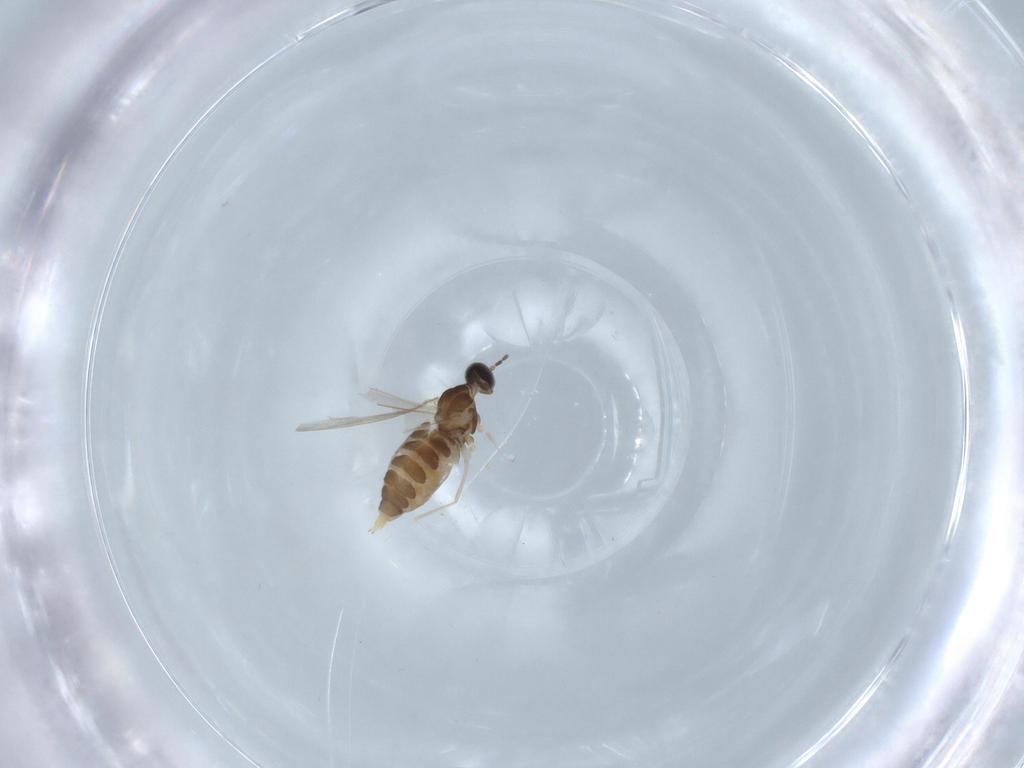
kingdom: Animalia
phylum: Arthropoda
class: Insecta
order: Diptera
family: Cecidomyiidae
